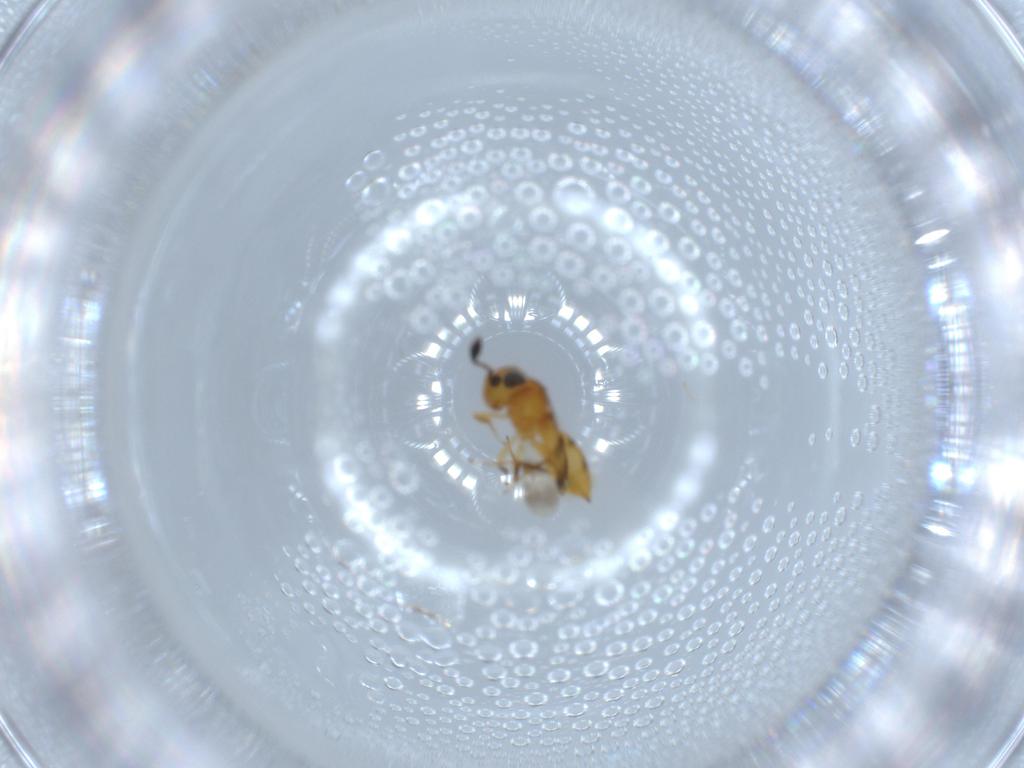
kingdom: Animalia
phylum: Arthropoda
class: Insecta
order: Hymenoptera
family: Scelionidae
